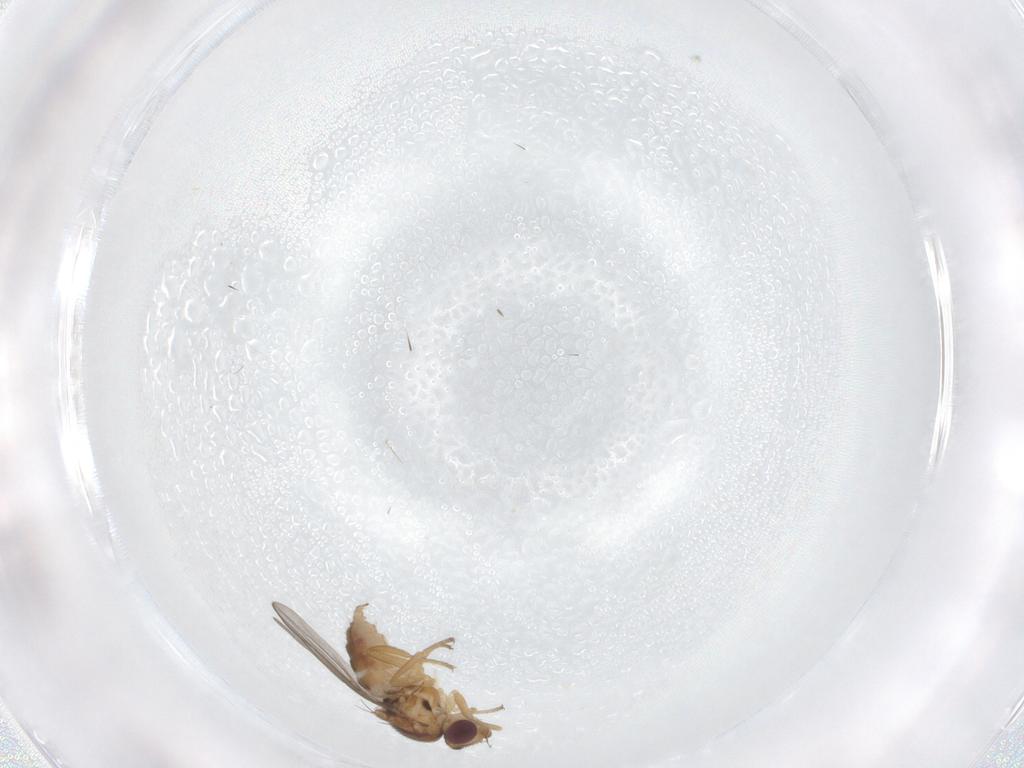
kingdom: Animalia
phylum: Arthropoda
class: Insecta
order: Diptera
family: Chloropidae
